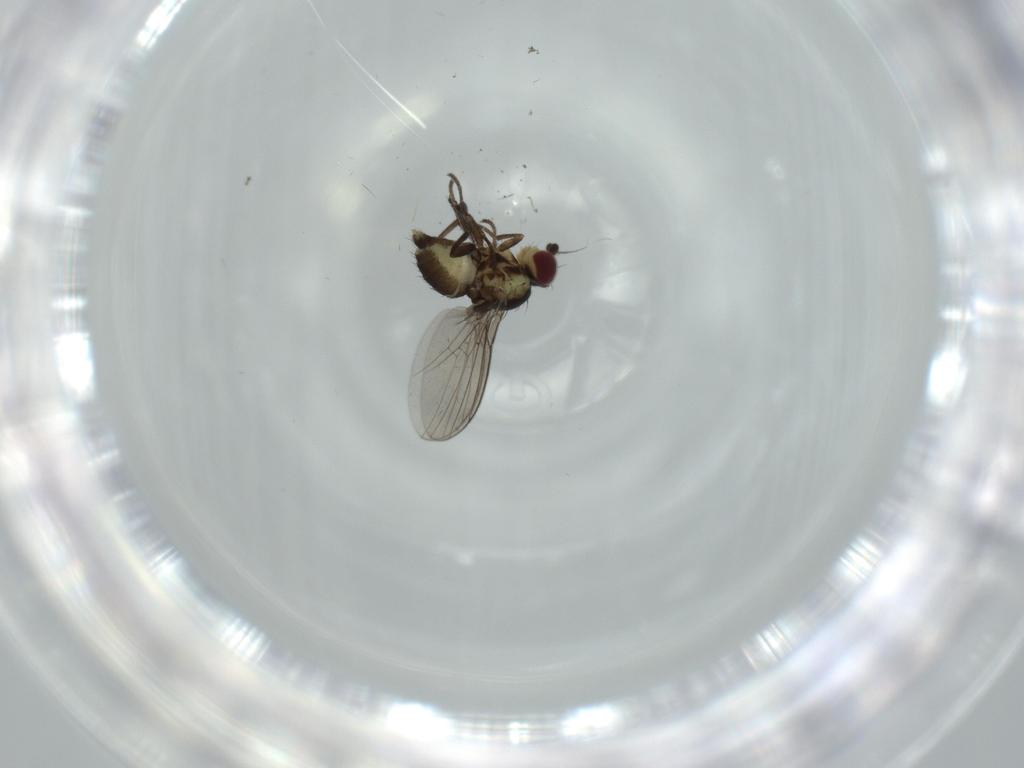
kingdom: Animalia
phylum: Arthropoda
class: Insecta
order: Diptera
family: Agromyzidae
